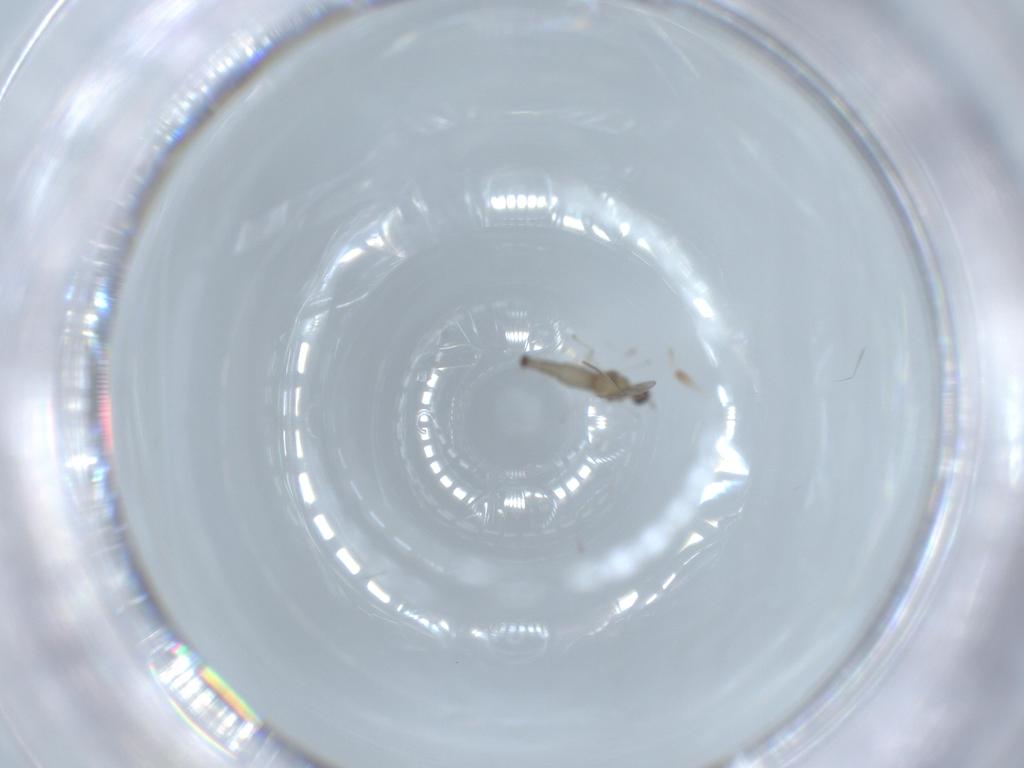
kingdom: Animalia
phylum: Arthropoda
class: Insecta
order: Diptera
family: Cecidomyiidae
